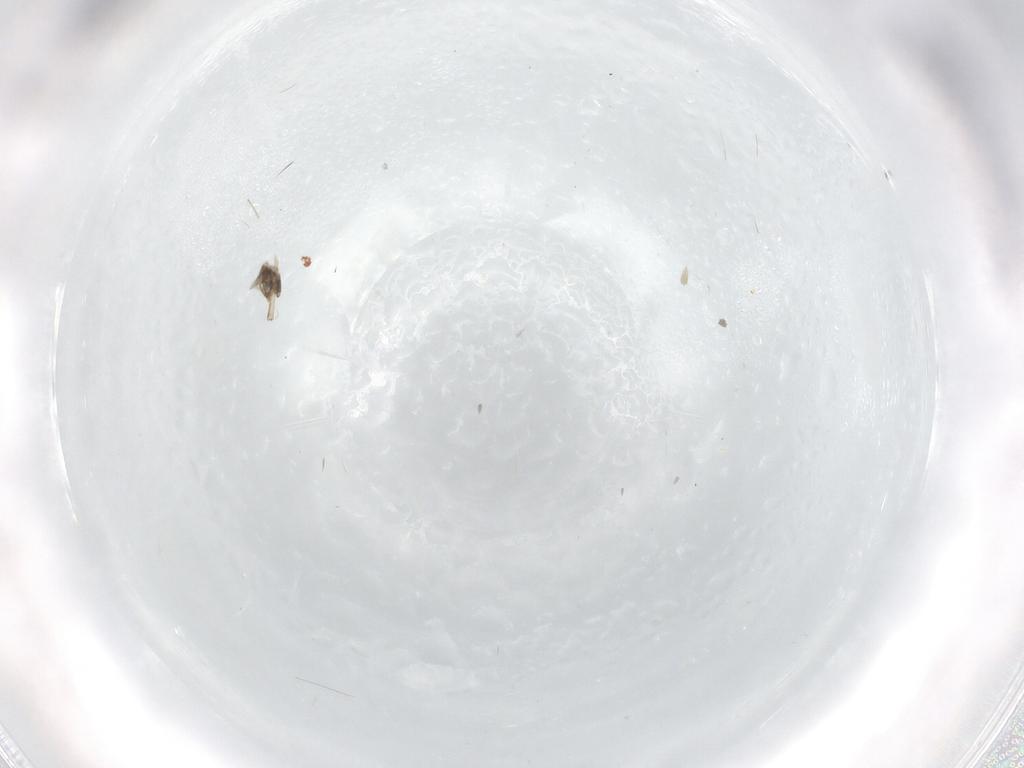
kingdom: Animalia
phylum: Arthropoda
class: Insecta
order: Diptera
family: Cecidomyiidae
